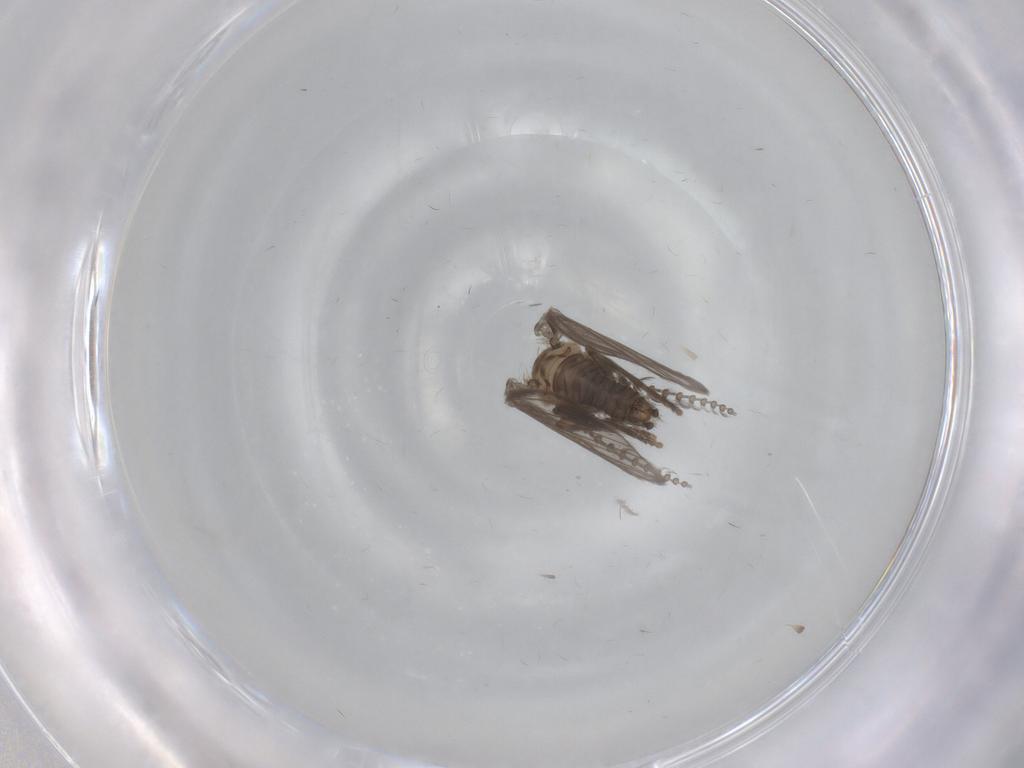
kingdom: Animalia
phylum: Arthropoda
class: Insecta
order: Diptera
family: Psychodidae
